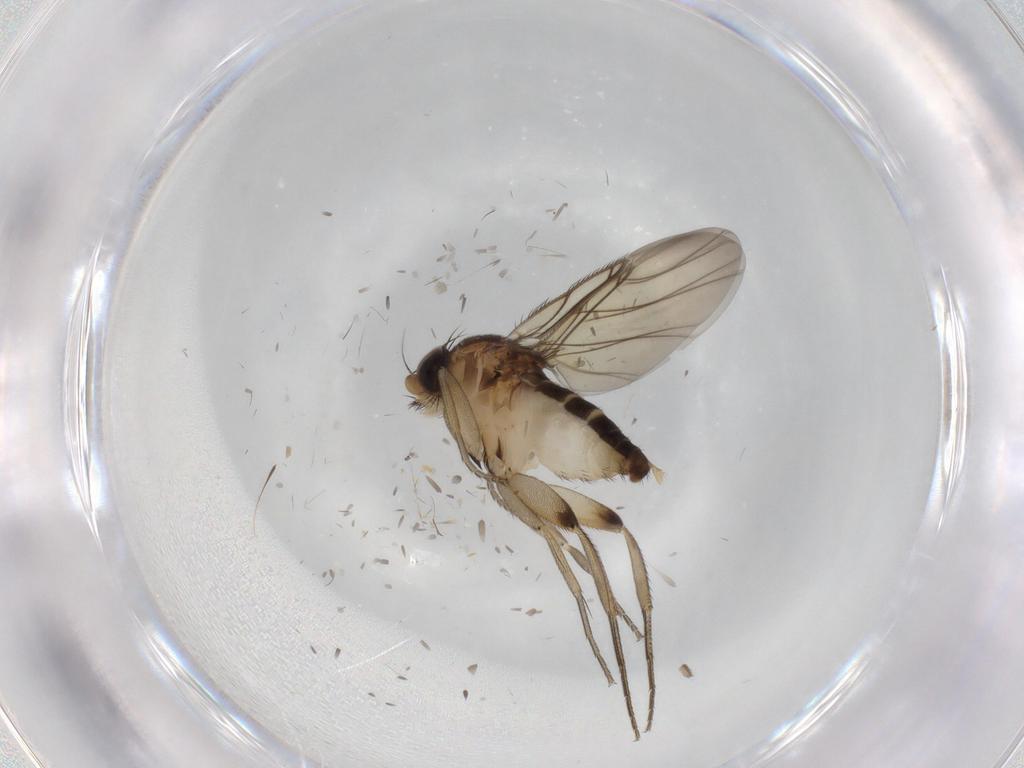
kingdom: Animalia
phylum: Arthropoda
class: Insecta
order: Diptera
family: Phoridae
